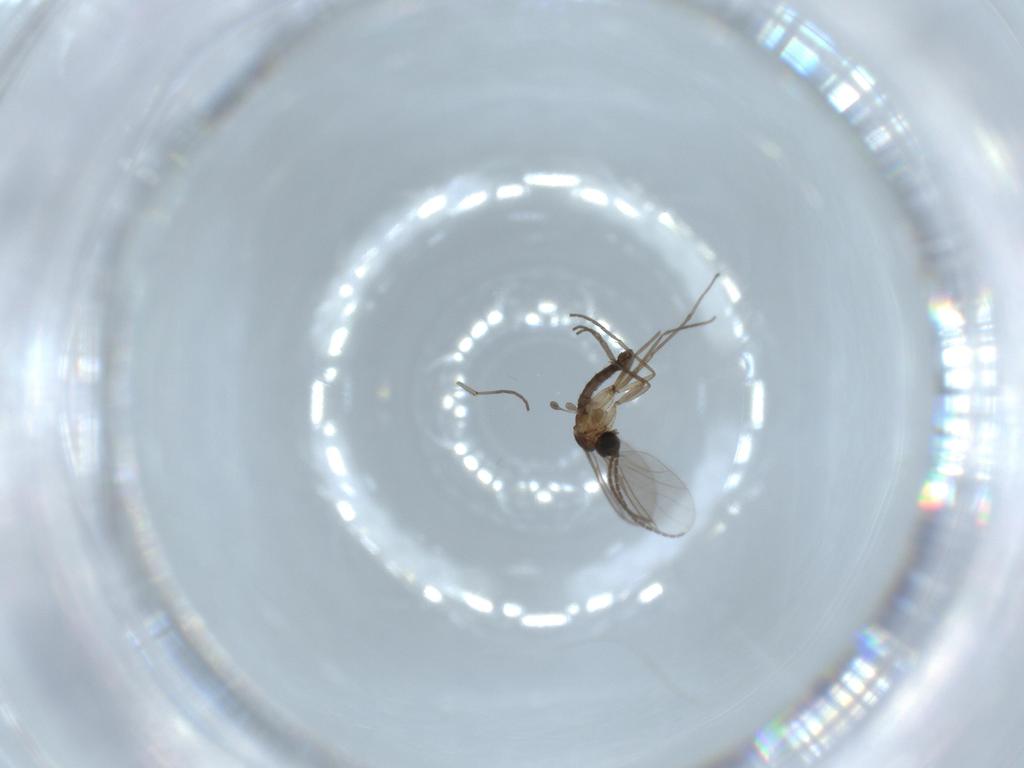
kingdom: Animalia
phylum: Arthropoda
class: Insecta
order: Diptera
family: Sciaridae
